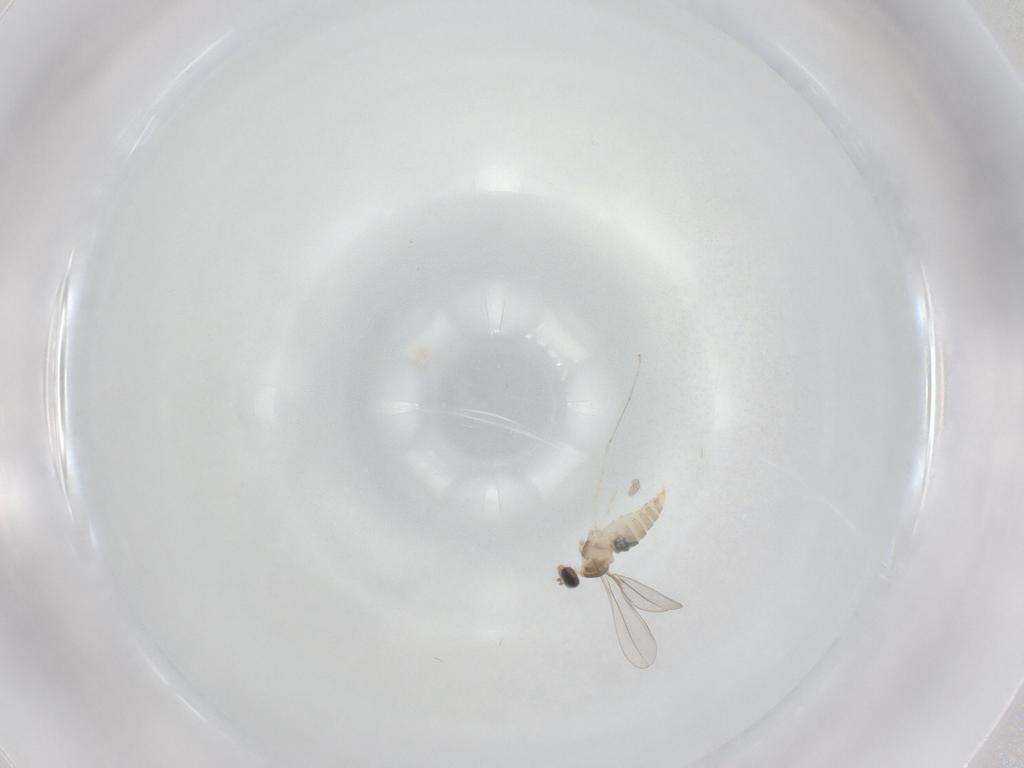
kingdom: Animalia
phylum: Arthropoda
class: Insecta
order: Diptera
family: Cecidomyiidae
